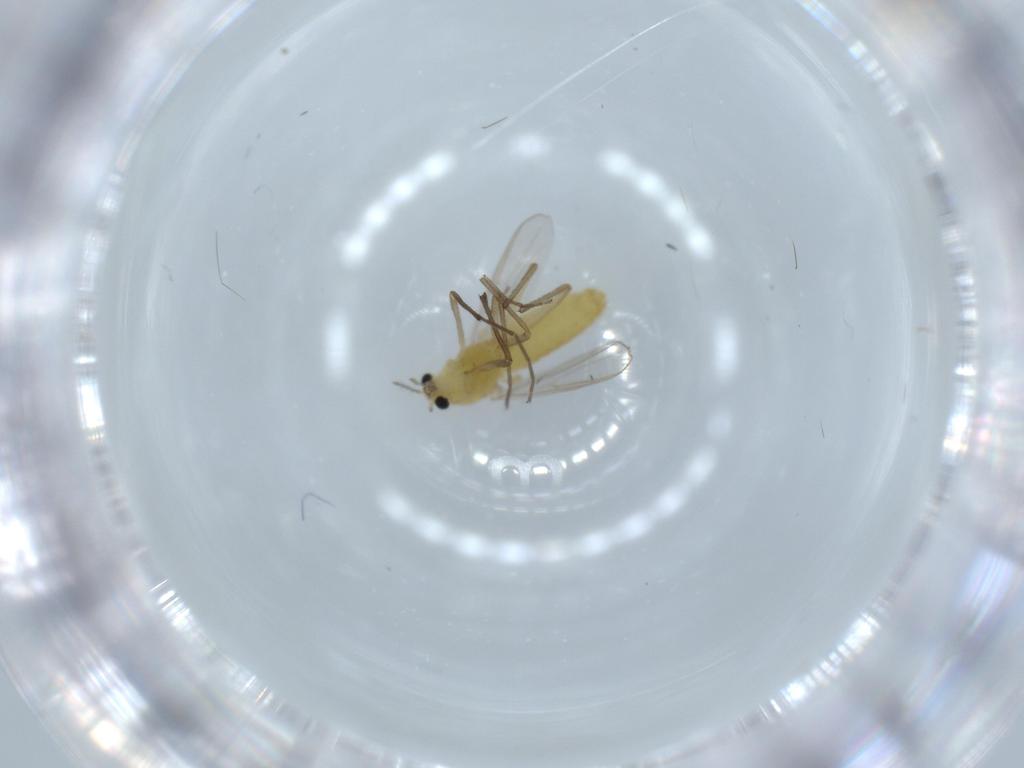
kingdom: Animalia
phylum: Arthropoda
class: Insecta
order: Diptera
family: Chironomidae
